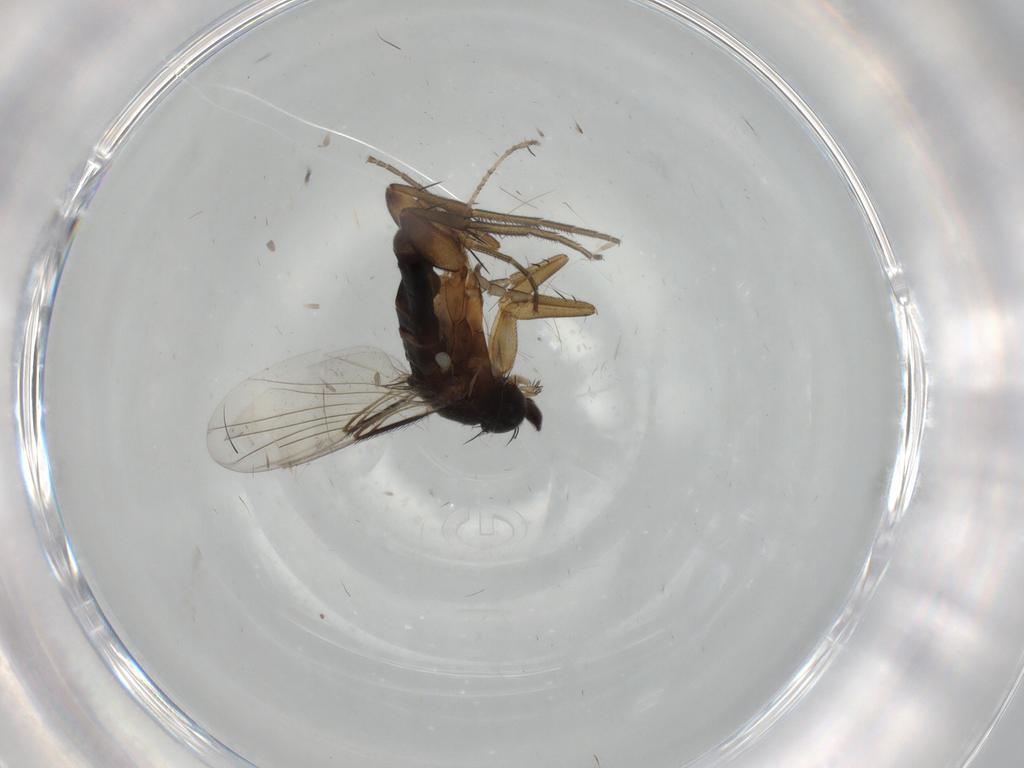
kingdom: Animalia
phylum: Arthropoda
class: Insecta
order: Diptera
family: Phoridae
